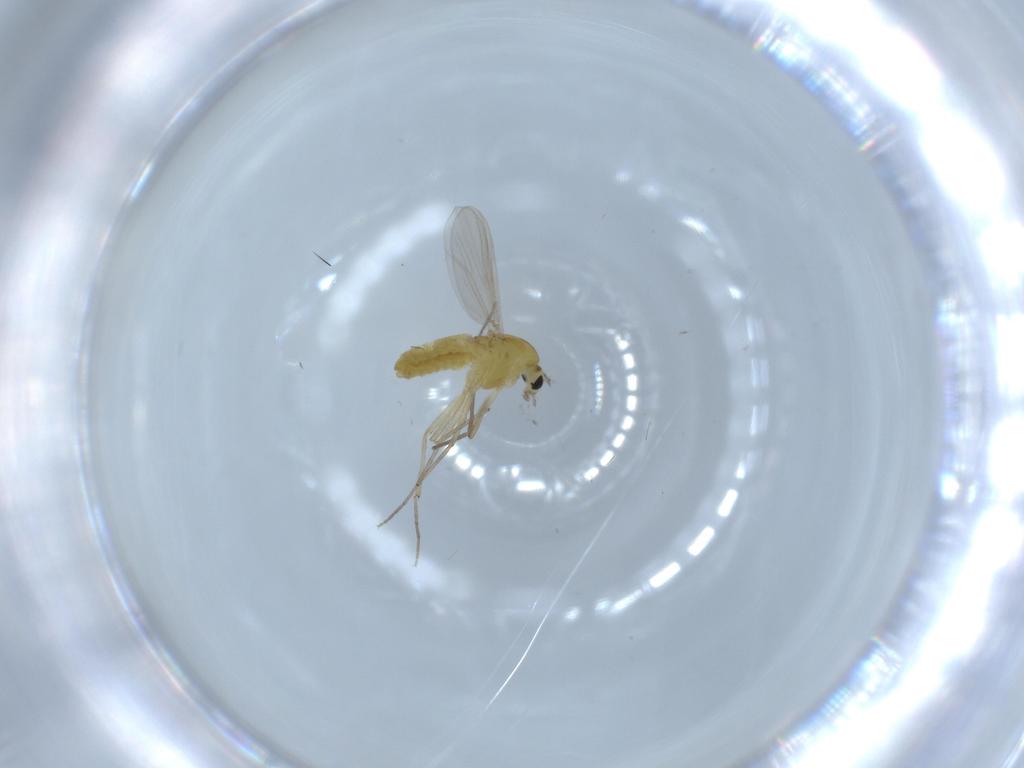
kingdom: Animalia
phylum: Arthropoda
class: Insecta
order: Diptera
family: Chironomidae
